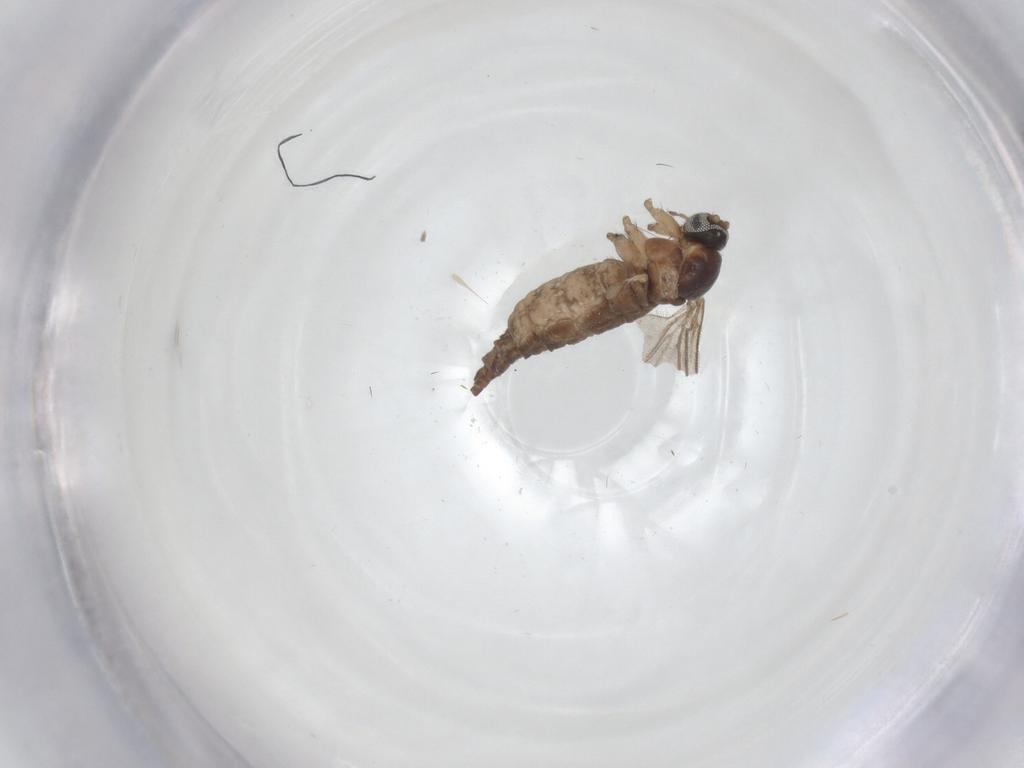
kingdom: Animalia
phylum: Arthropoda
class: Insecta
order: Diptera
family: Sciaridae
